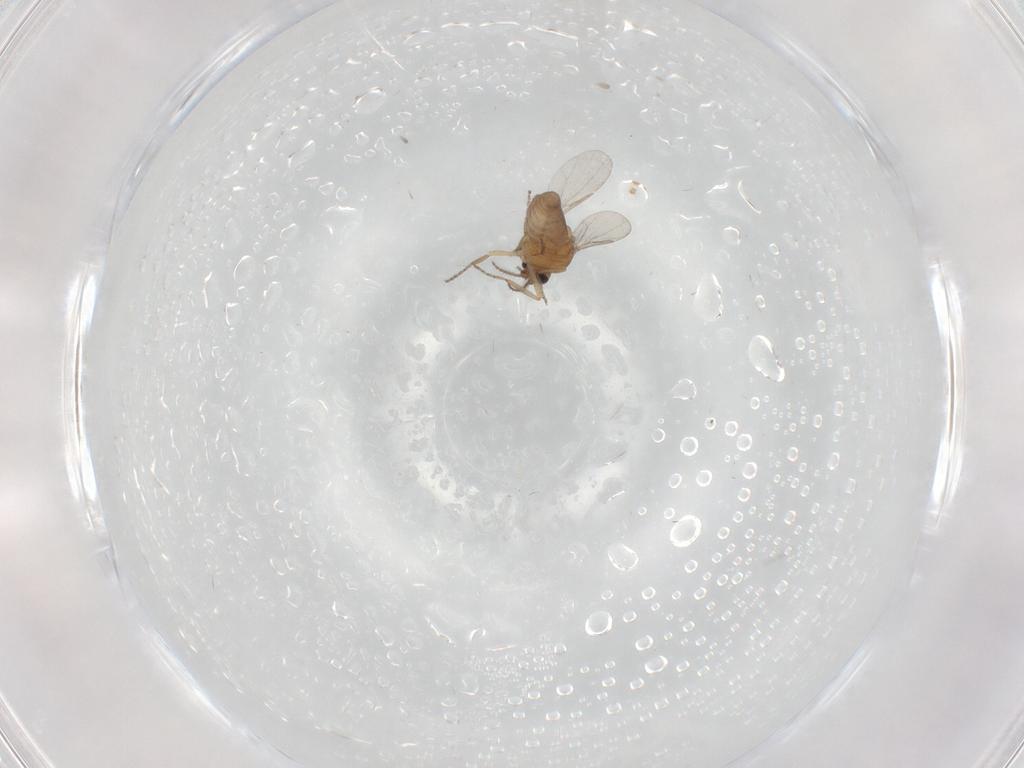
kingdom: Animalia
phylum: Arthropoda
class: Insecta
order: Diptera
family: Ceratopogonidae
